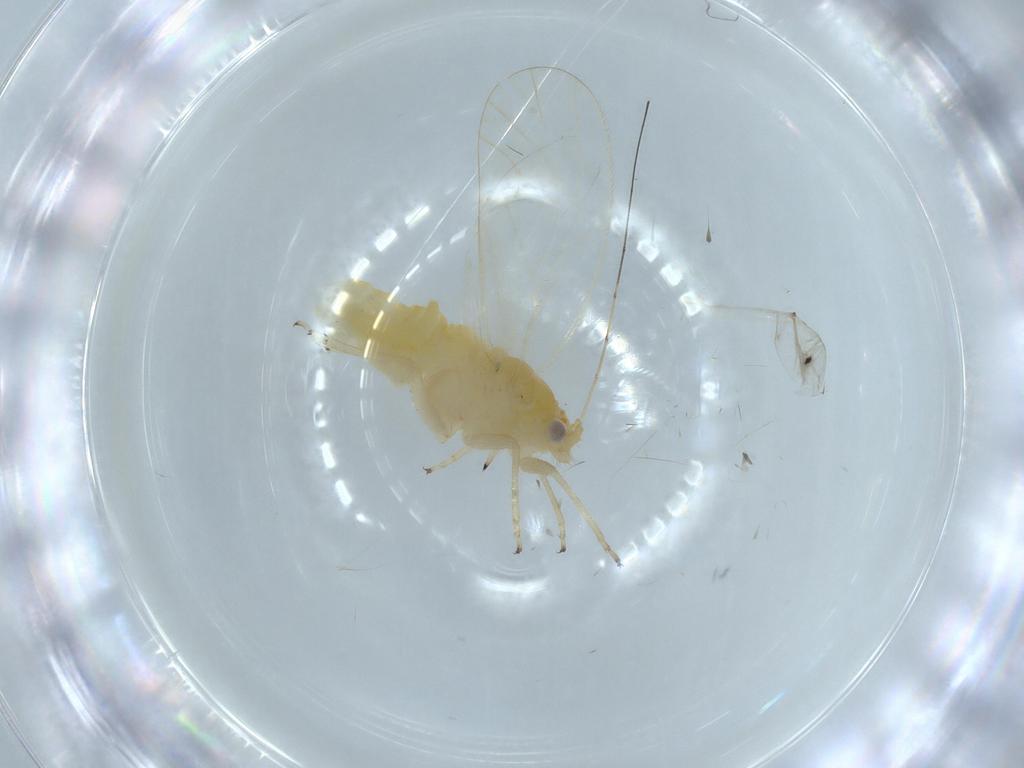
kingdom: Animalia
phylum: Arthropoda
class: Insecta
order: Hemiptera
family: Psyllidae
